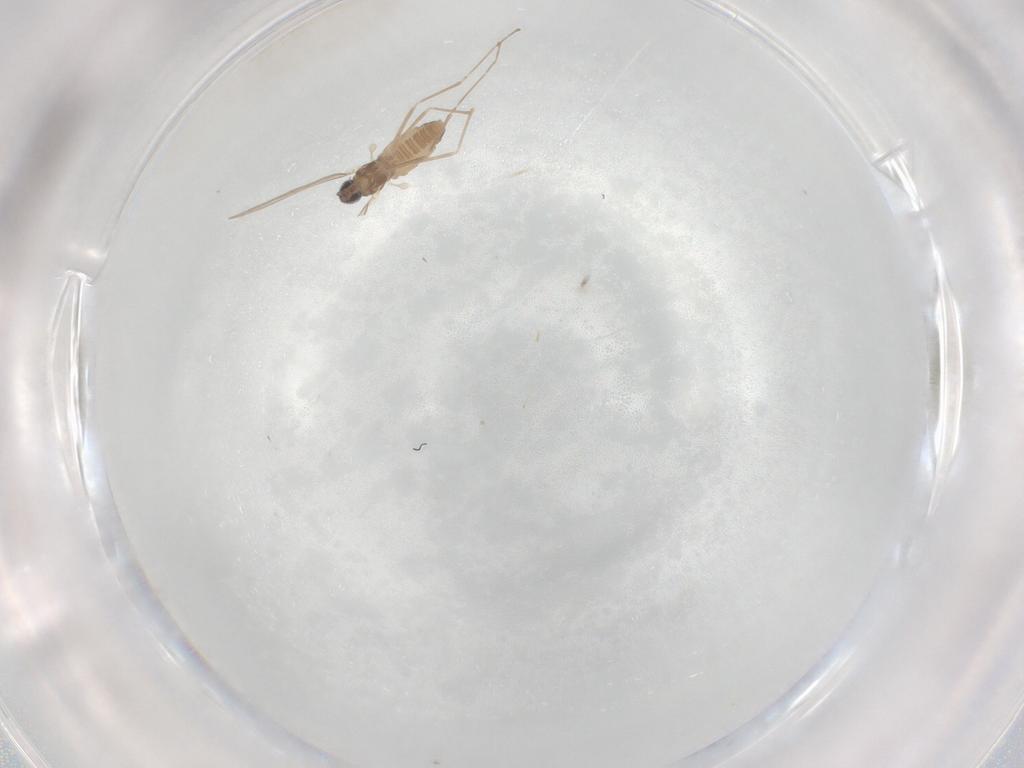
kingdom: Animalia
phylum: Arthropoda
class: Insecta
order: Diptera
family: Cecidomyiidae
